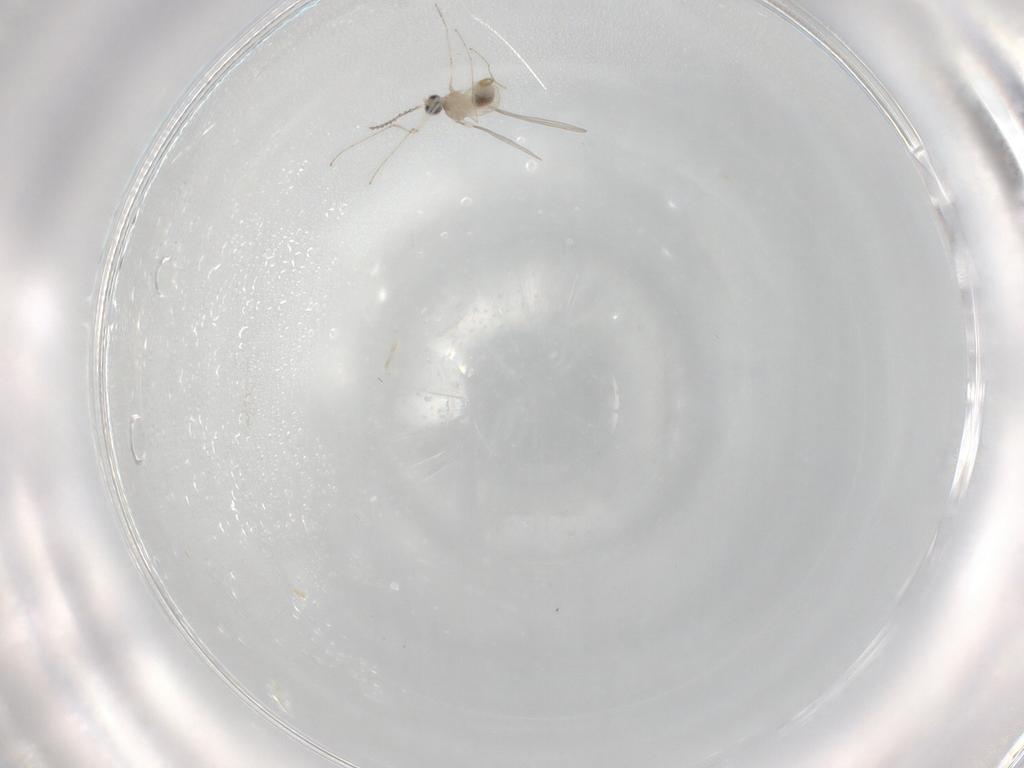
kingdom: Animalia
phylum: Arthropoda
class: Insecta
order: Diptera
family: Cecidomyiidae
